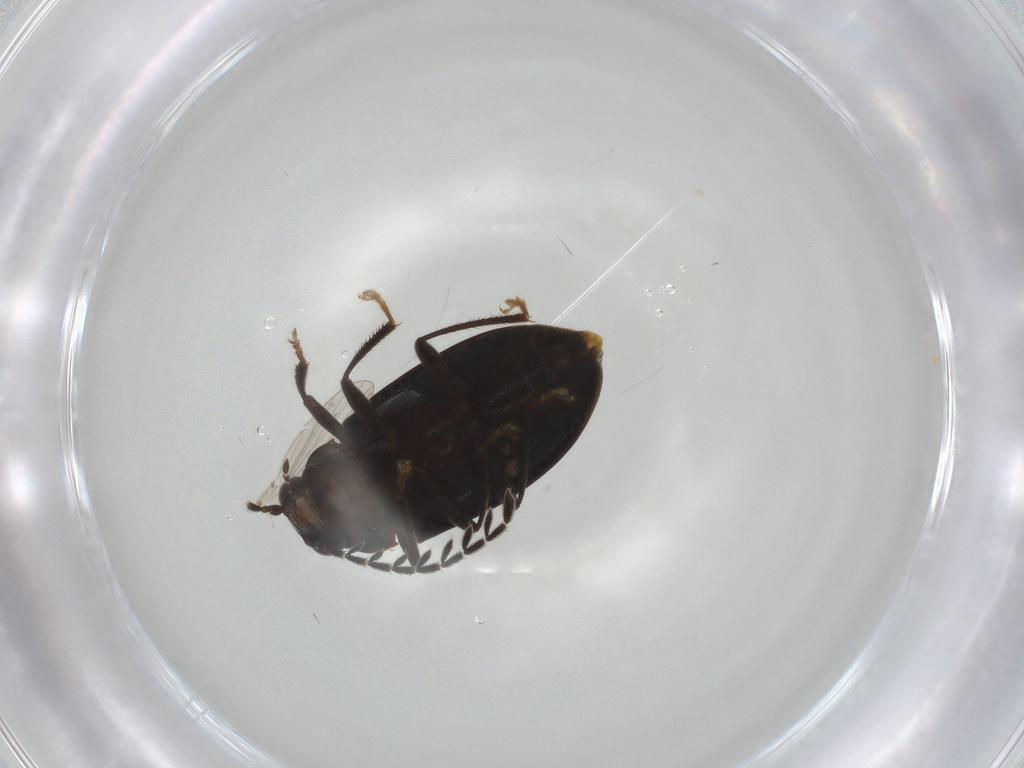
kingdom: Animalia
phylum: Arthropoda
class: Insecta
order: Coleoptera
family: Ptilodactylidae
